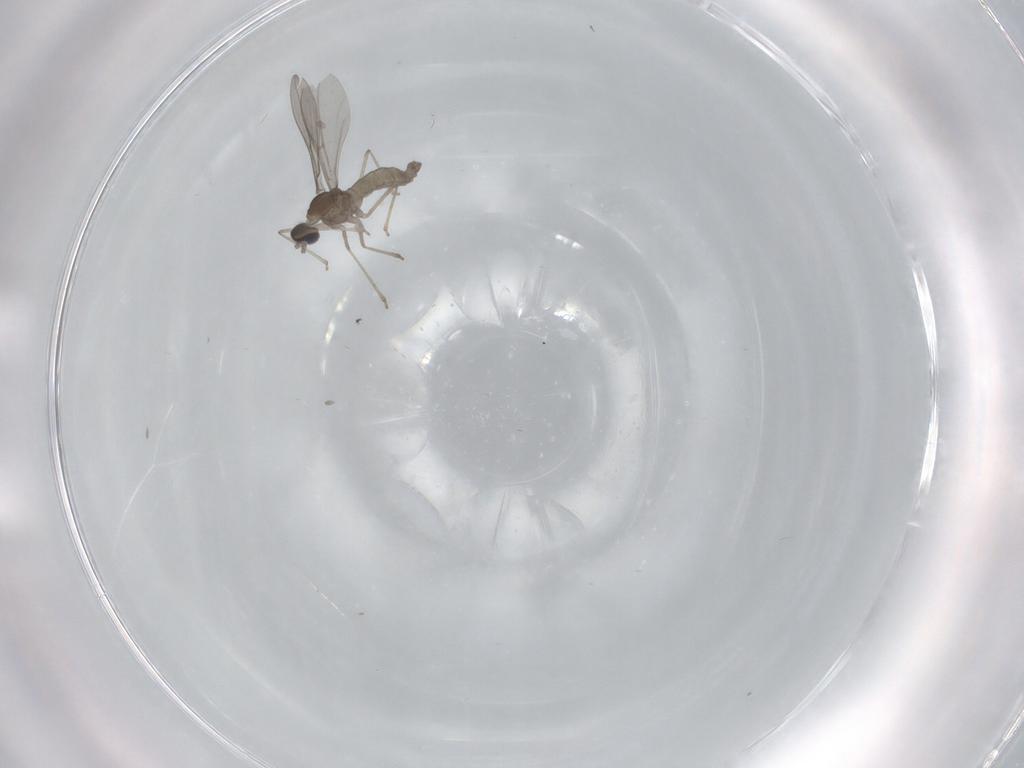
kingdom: Animalia
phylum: Arthropoda
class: Insecta
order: Diptera
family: Cecidomyiidae
